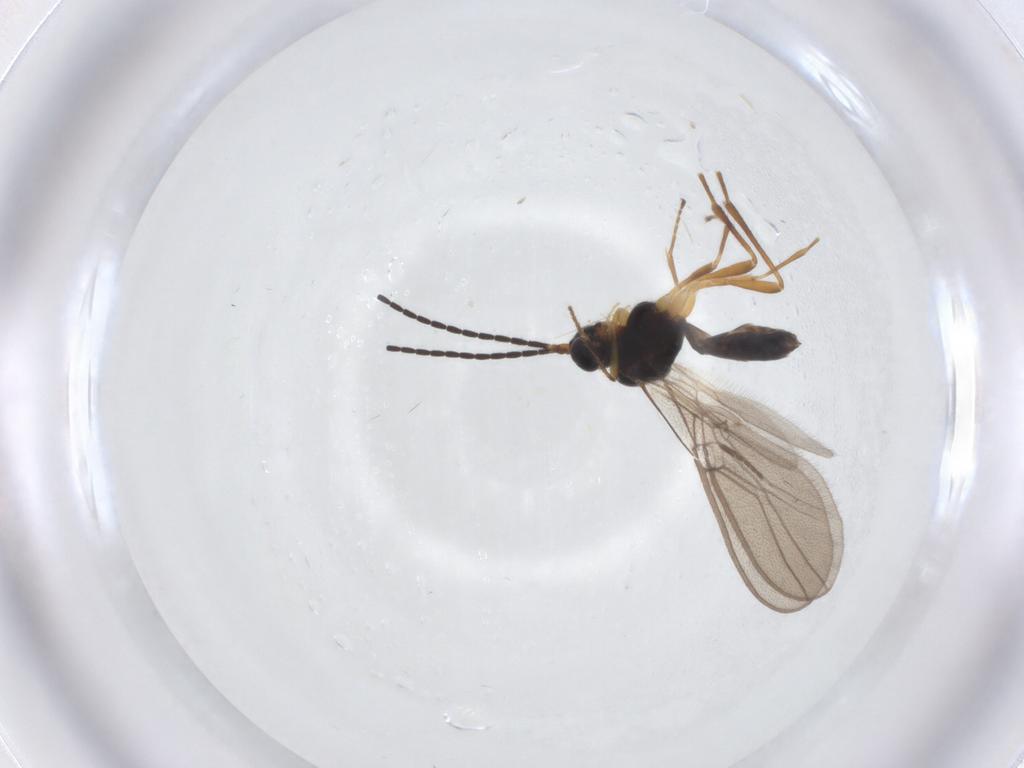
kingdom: Animalia
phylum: Arthropoda
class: Insecta
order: Hymenoptera
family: Braconidae
